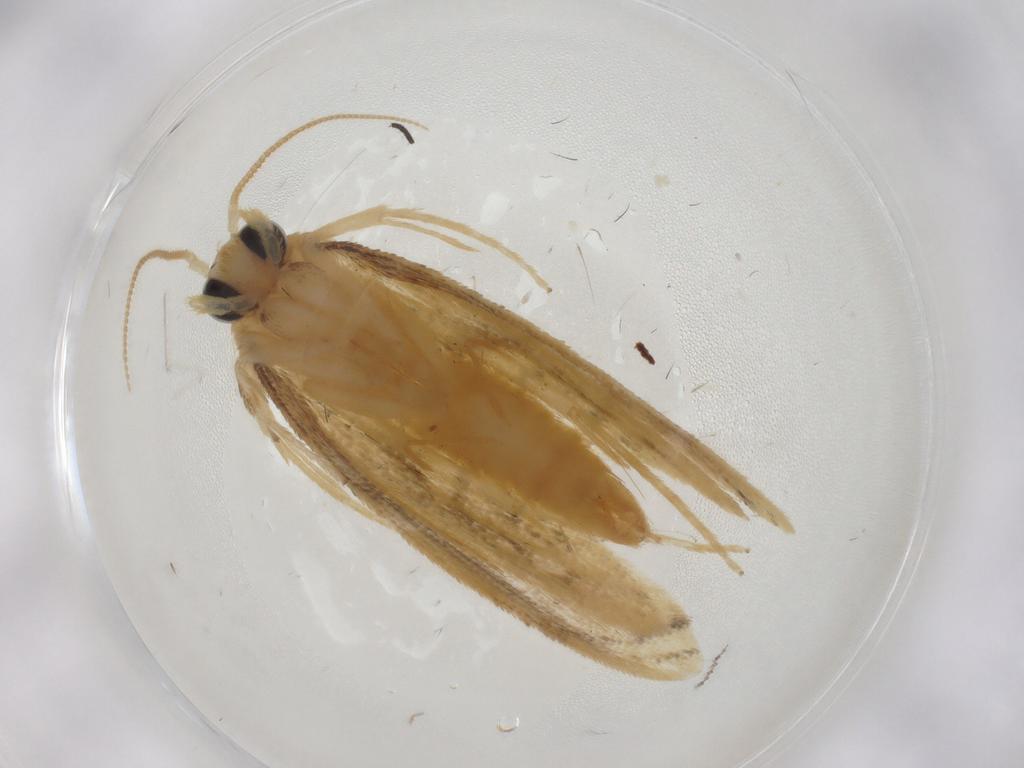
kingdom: Animalia
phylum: Arthropoda
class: Insecta
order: Lepidoptera
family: Psychidae
